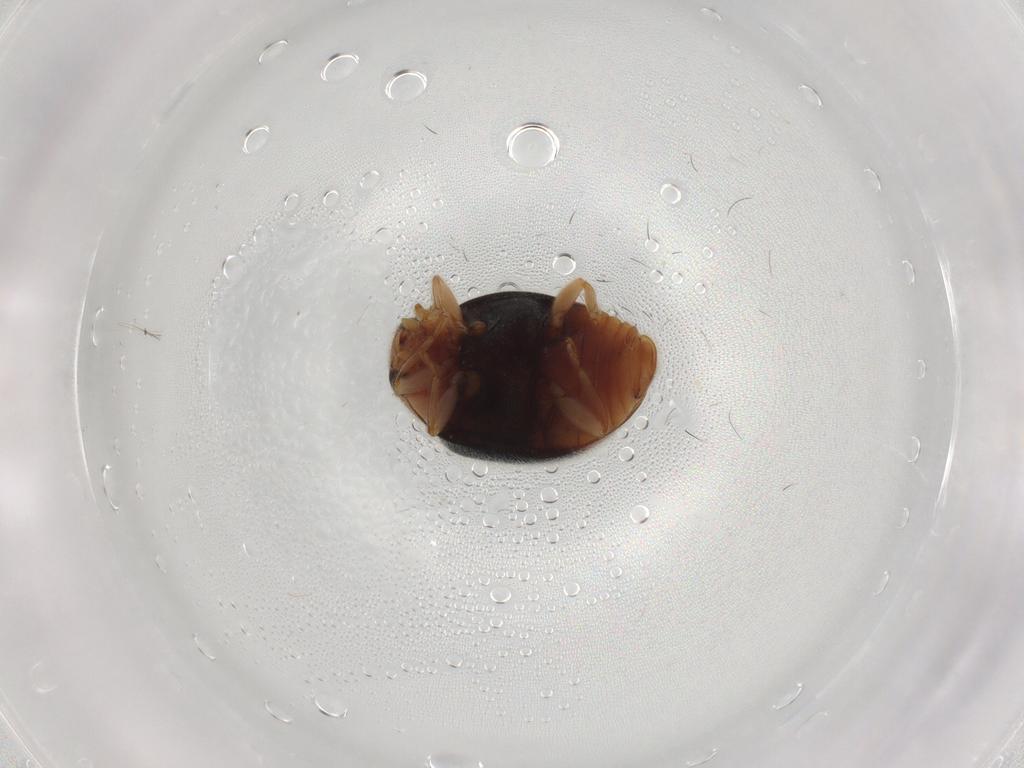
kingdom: Animalia
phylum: Arthropoda
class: Insecta
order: Coleoptera
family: Coccinellidae
